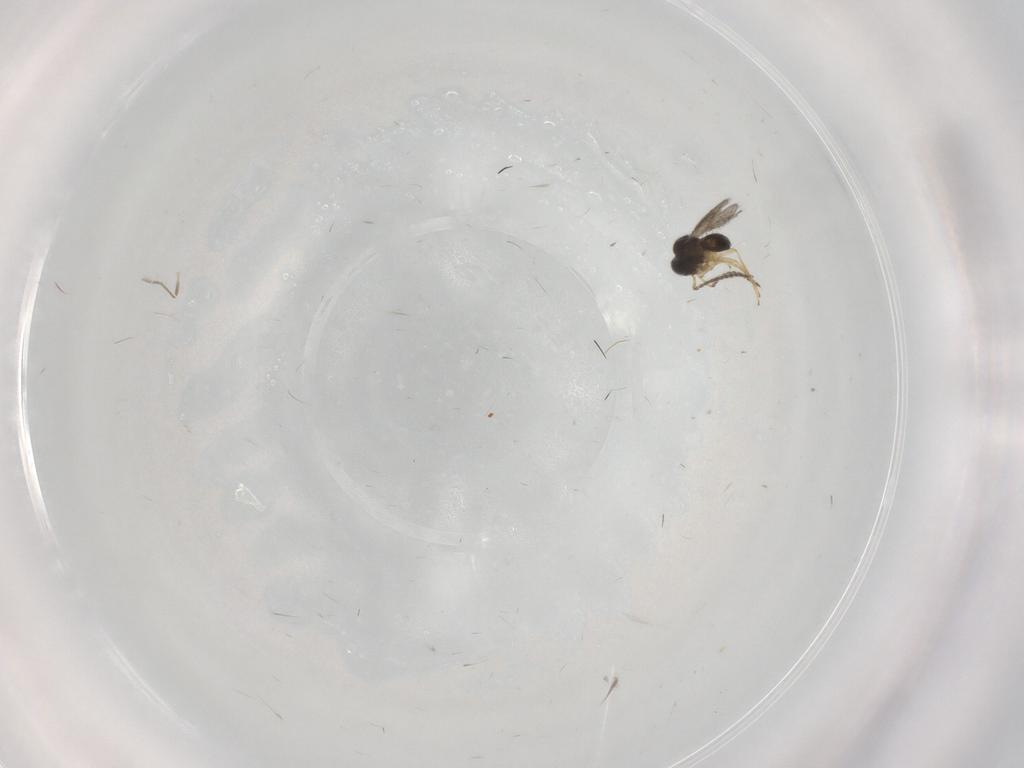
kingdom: Animalia
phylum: Arthropoda
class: Insecta
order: Hymenoptera
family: Scelionidae
